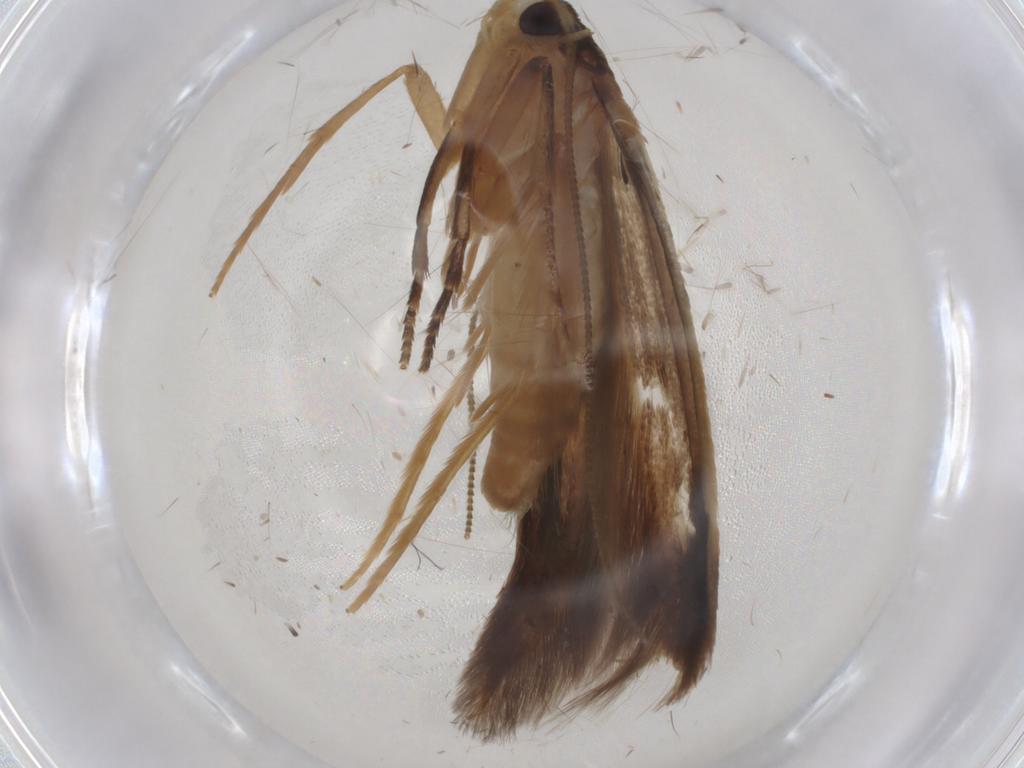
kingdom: Animalia
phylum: Arthropoda
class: Insecta
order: Lepidoptera
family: Tineidae
